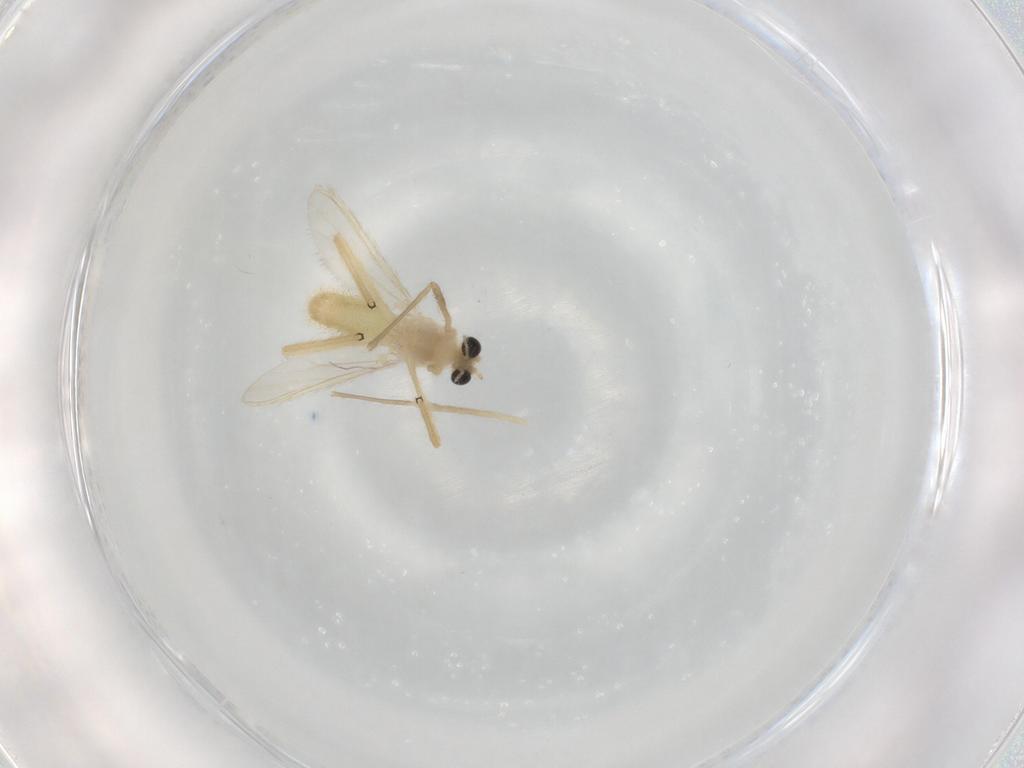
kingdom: Animalia
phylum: Arthropoda
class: Insecta
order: Diptera
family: Chironomidae
